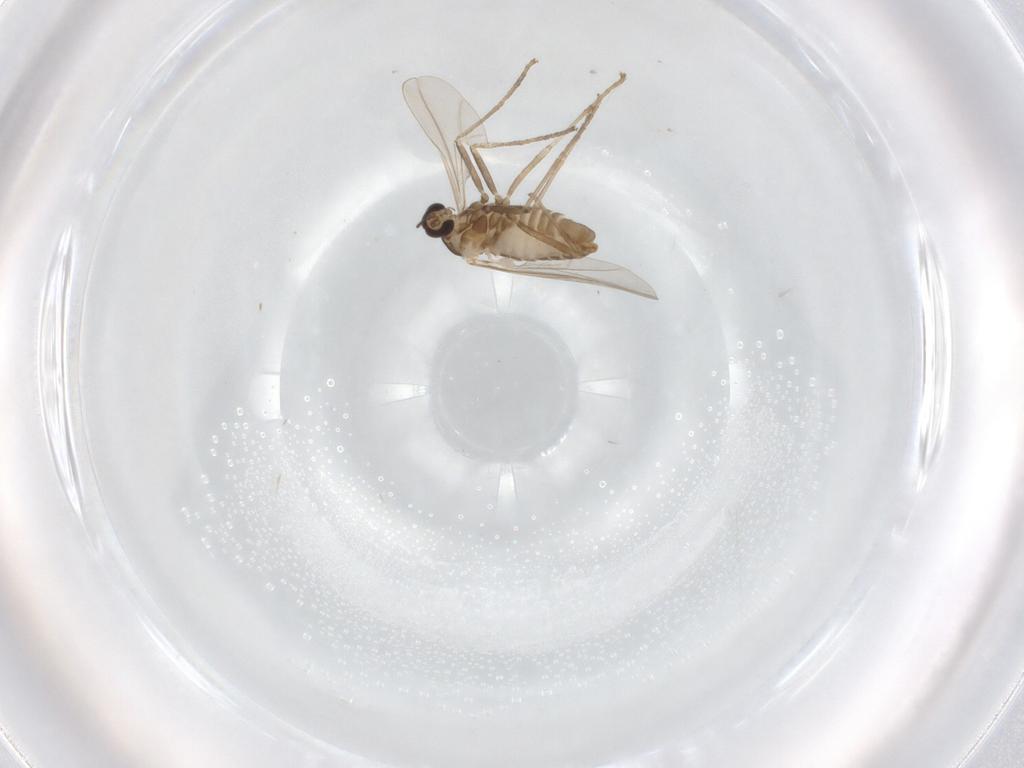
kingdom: Animalia
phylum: Arthropoda
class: Insecta
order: Diptera
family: Cecidomyiidae
